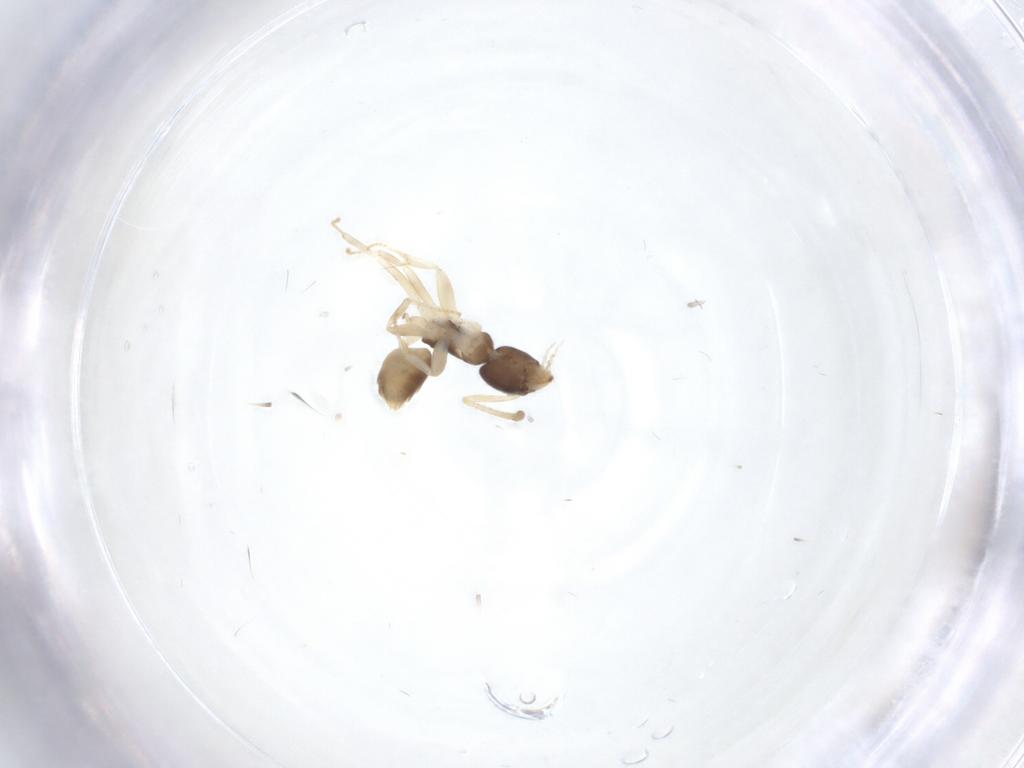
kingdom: Animalia
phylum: Arthropoda
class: Insecta
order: Hymenoptera
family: Formicidae
